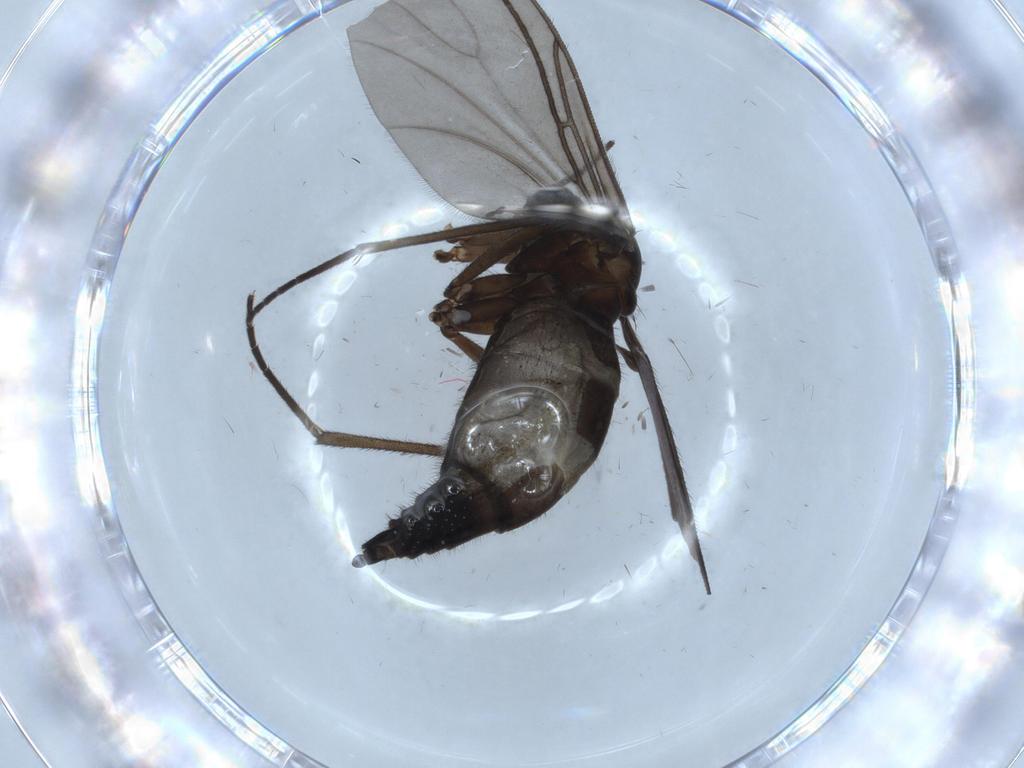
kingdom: Animalia
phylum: Arthropoda
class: Insecta
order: Diptera
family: Sciaridae
